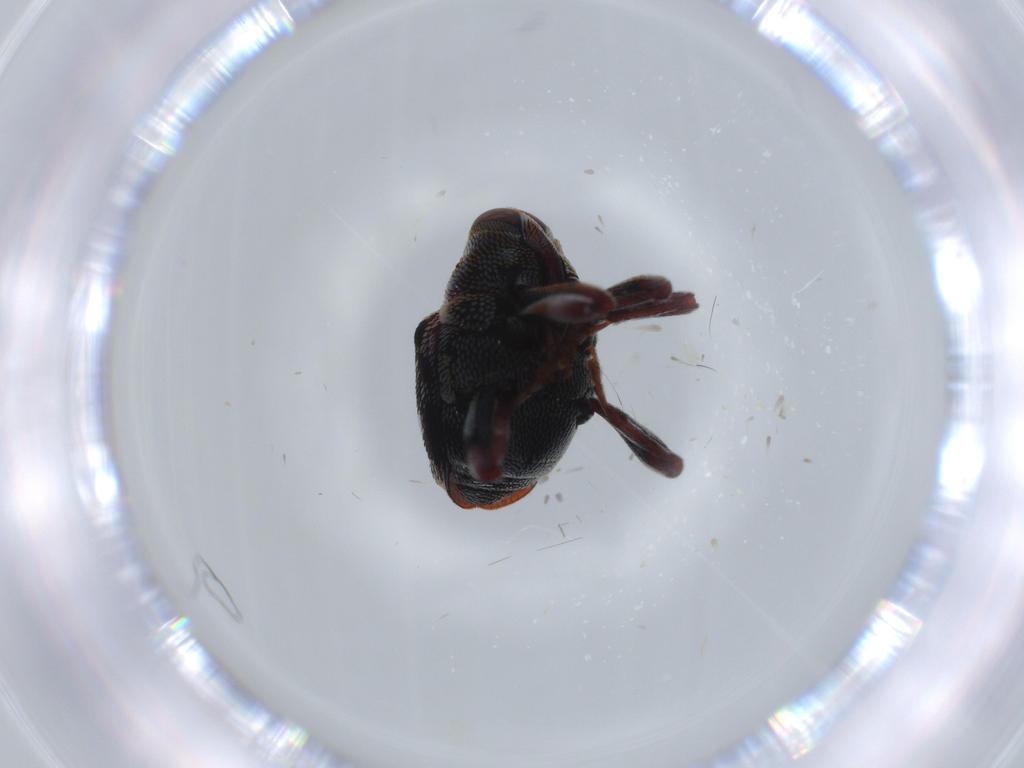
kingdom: Animalia
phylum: Arthropoda
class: Insecta
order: Coleoptera
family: Curculionidae
